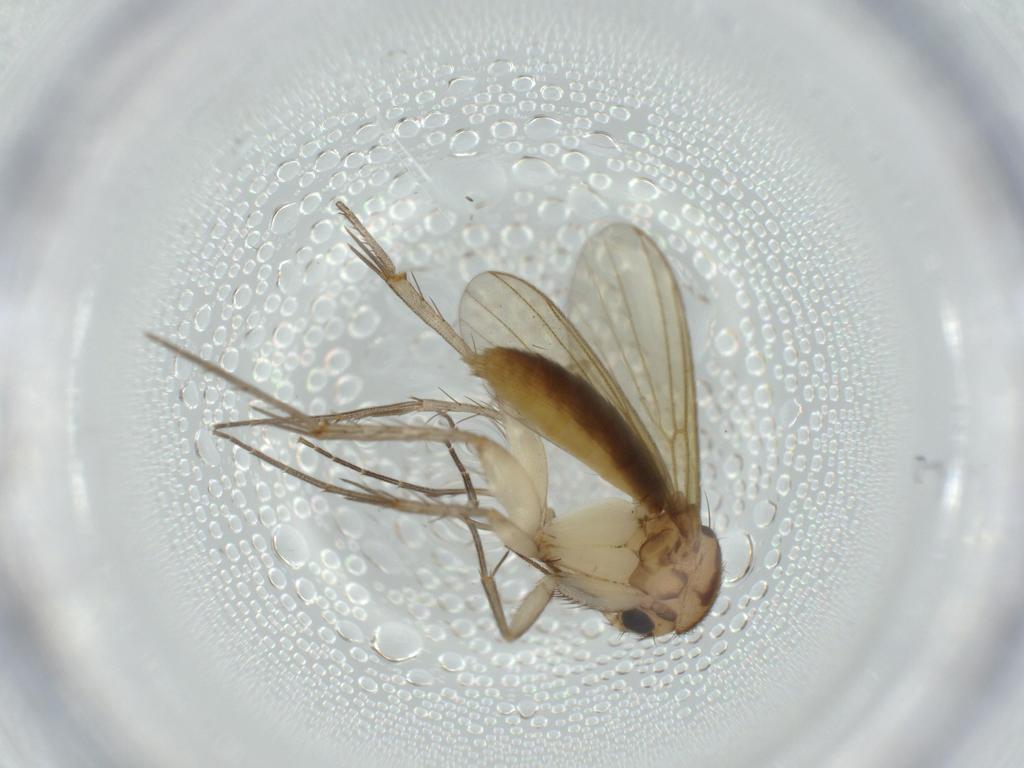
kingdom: Animalia
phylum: Arthropoda
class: Insecta
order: Diptera
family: Mycetophilidae
